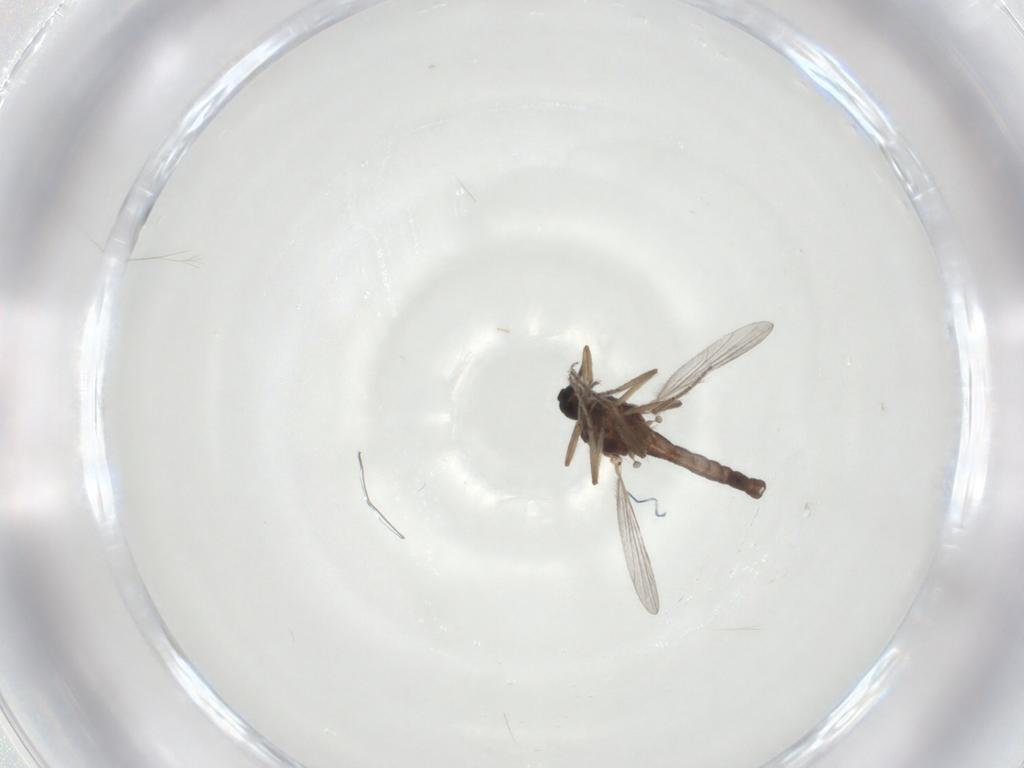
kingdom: Animalia
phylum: Arthropoda
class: Insecta
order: Diptera
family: Ceratopogonidae
